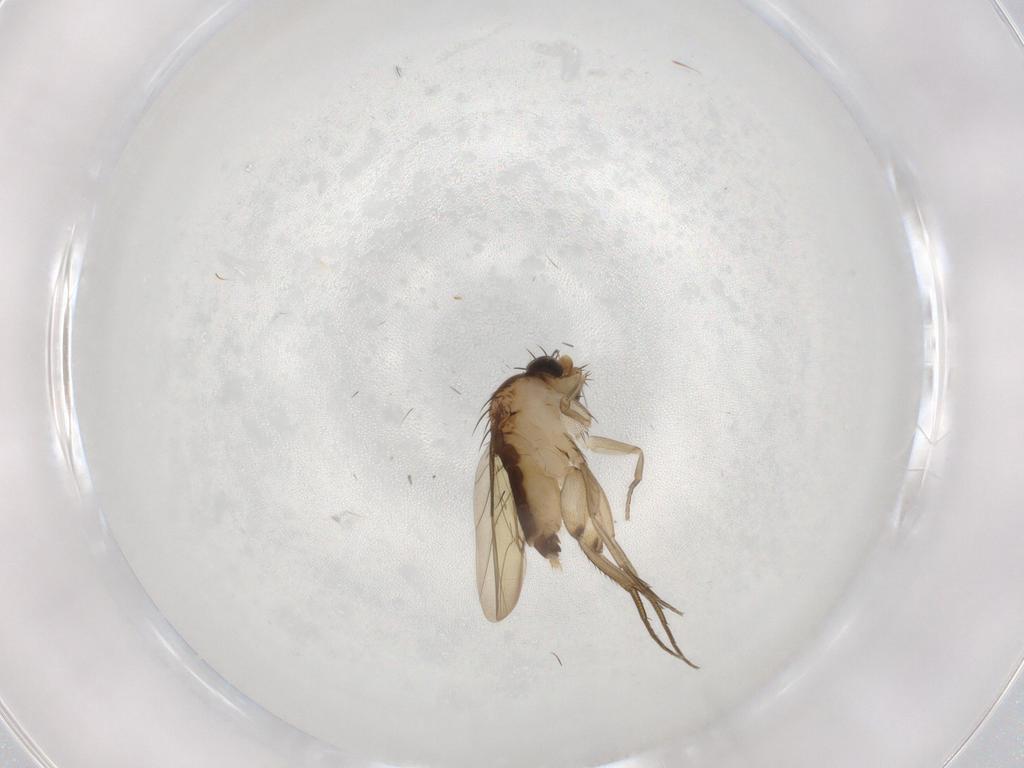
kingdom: Animalia
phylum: Arthropoda
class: Insecta
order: Diptera
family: Phoridae
